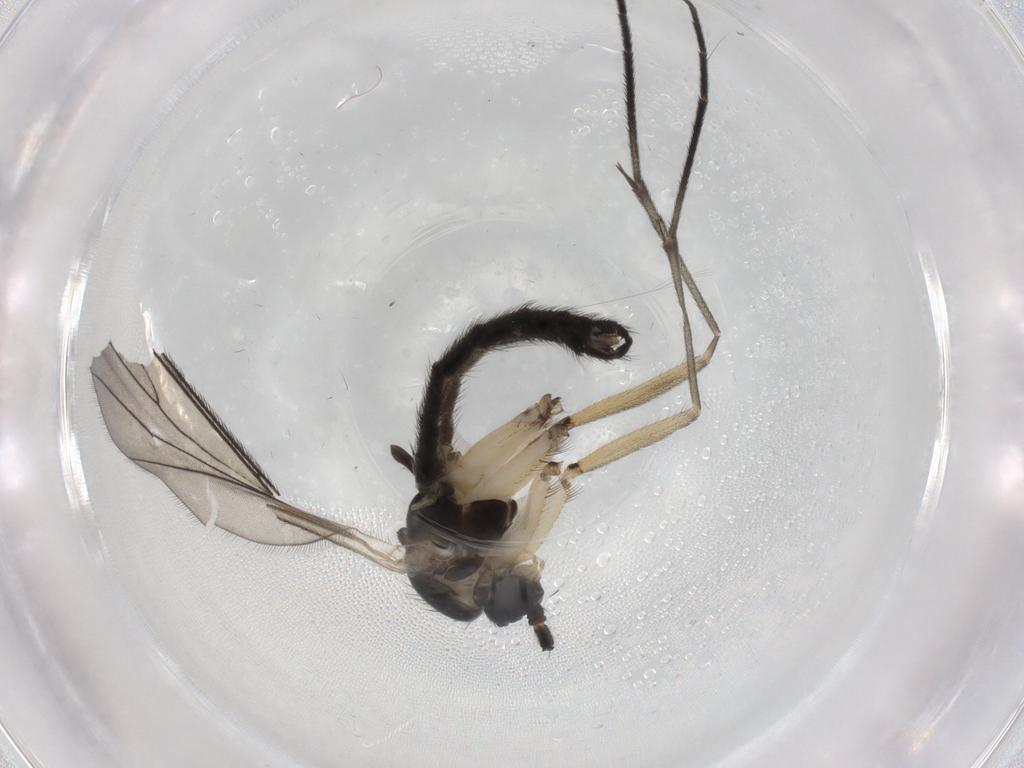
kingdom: Animalia
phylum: Arthropoda
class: Insecta
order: Diptera
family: Sciaridae
